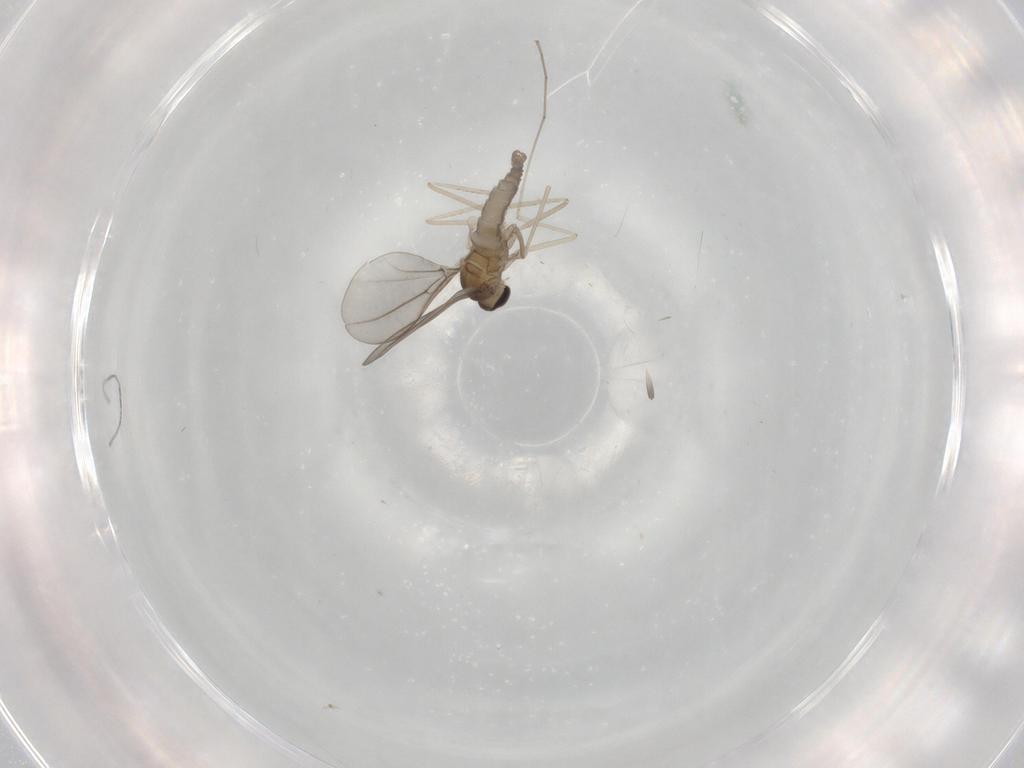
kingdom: Animalia
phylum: Arthropoda
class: Insecta
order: Diptera
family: Cecidomyiidae
